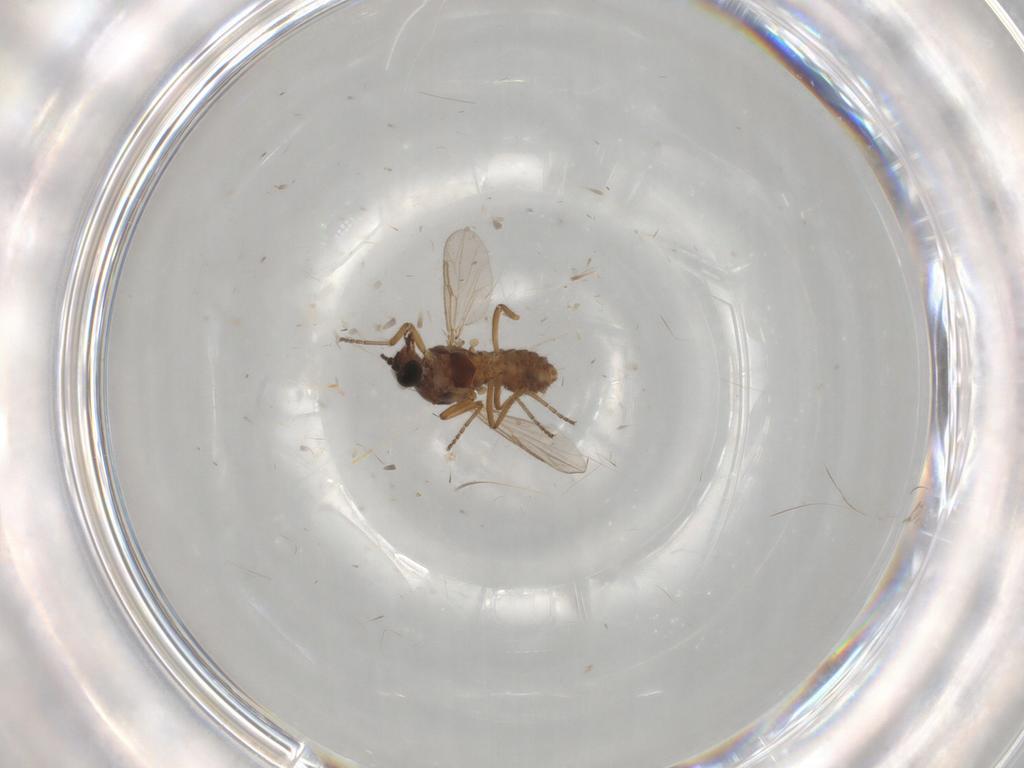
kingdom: Animalia
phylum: Arthropoda
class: Insecta
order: Diptera
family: Ceratopogonidae
